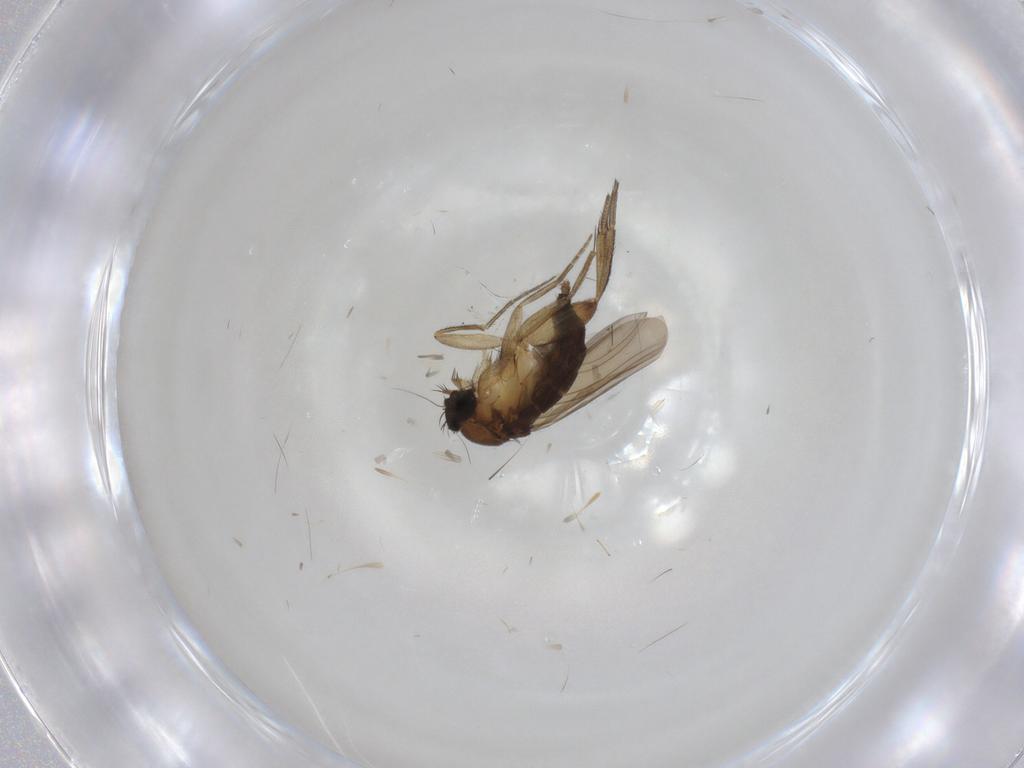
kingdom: Animalia
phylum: Arthropoda
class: Insecta
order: Diptera
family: Phoridae
